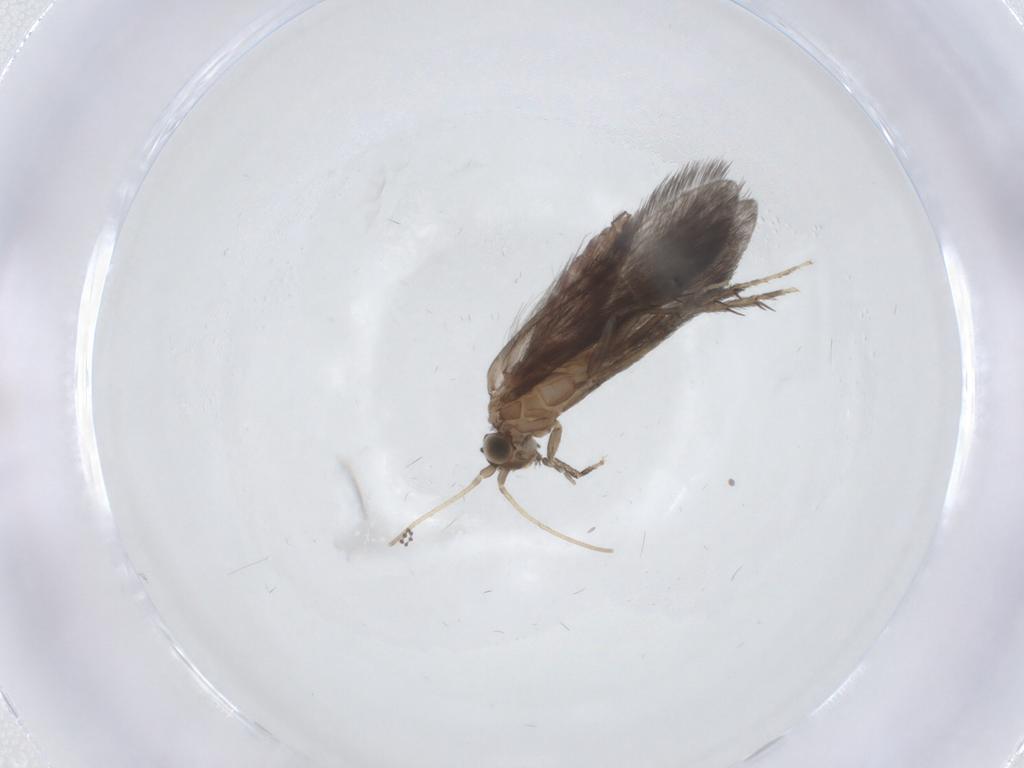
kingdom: Animalia
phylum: Arthropoda
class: Insecta
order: Trichoptera
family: Glossosomatidae
